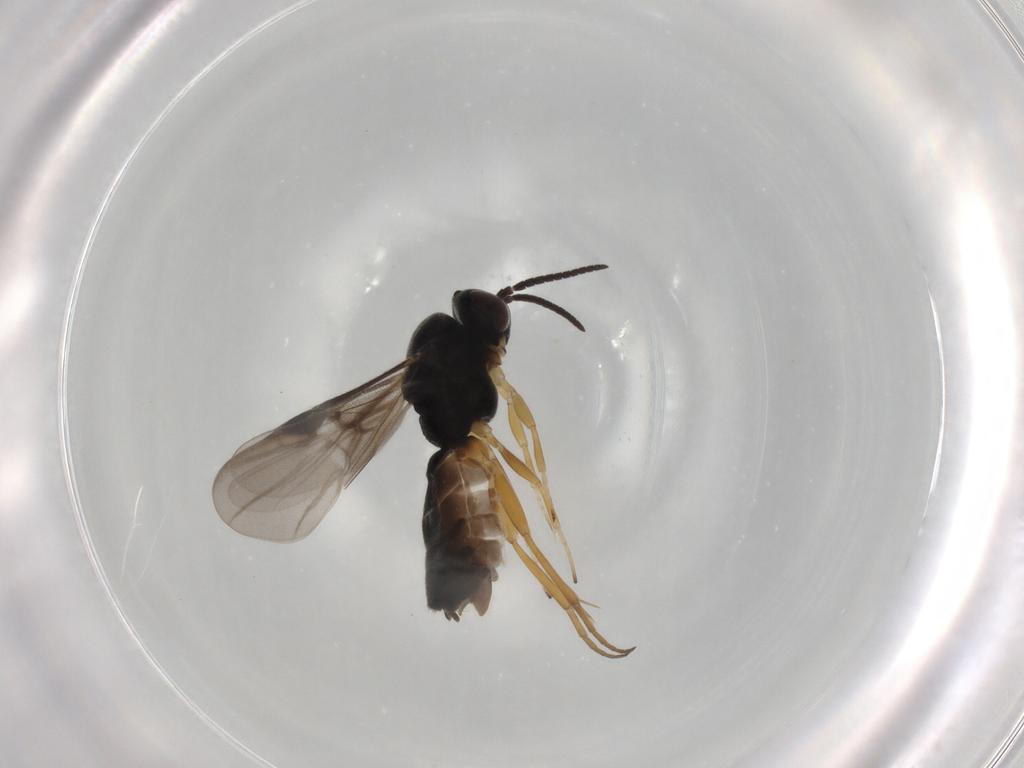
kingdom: Animalia
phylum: Arthropoda
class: Insecta
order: Hymenoptera
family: Braconidae
